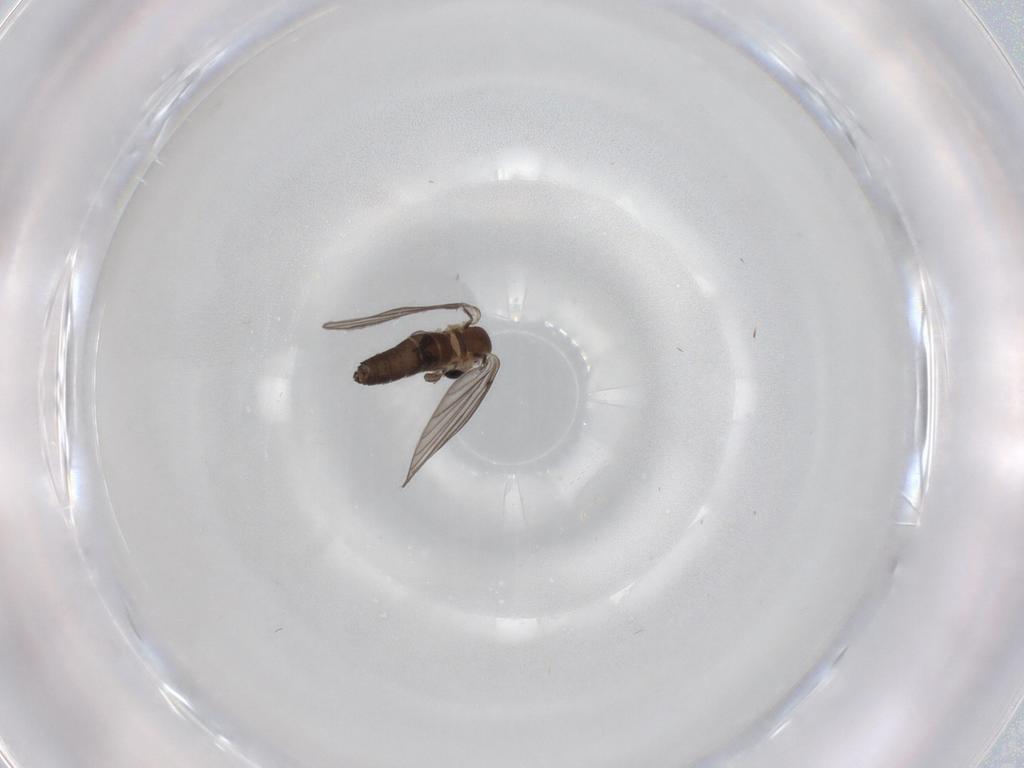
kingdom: Animalia
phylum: Arthropoda
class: Insecta
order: Diptera
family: Ceratopogonidae
